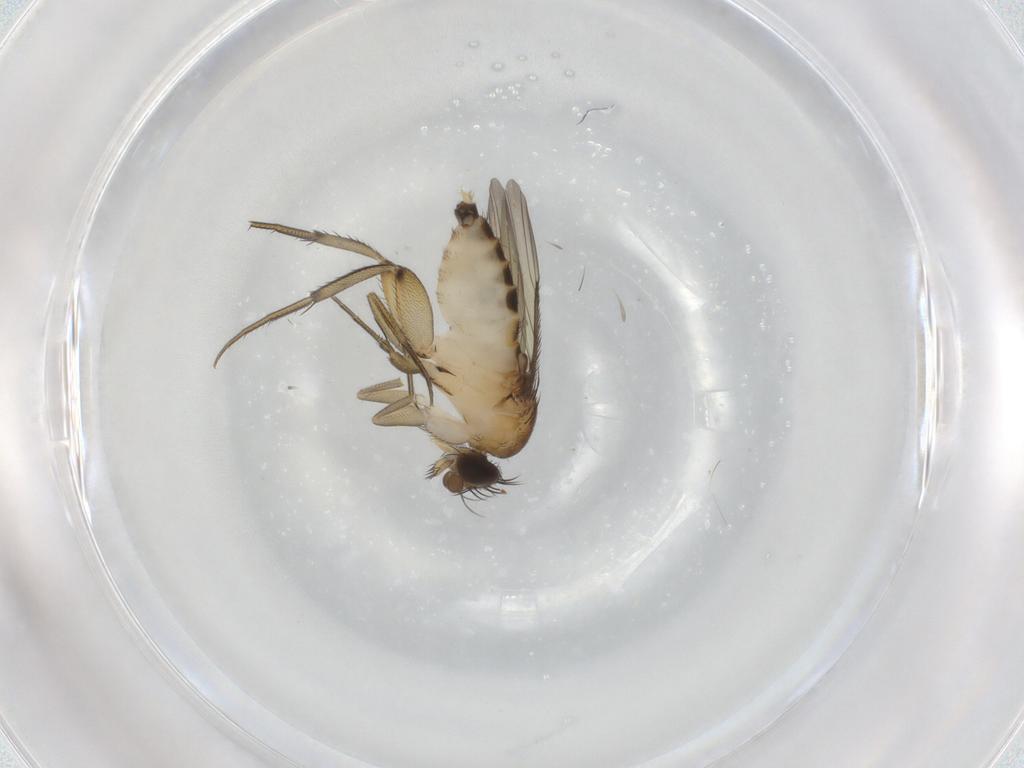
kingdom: Animalia
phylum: Arthropoda
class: Insecta
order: Diptera
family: Phoridae
